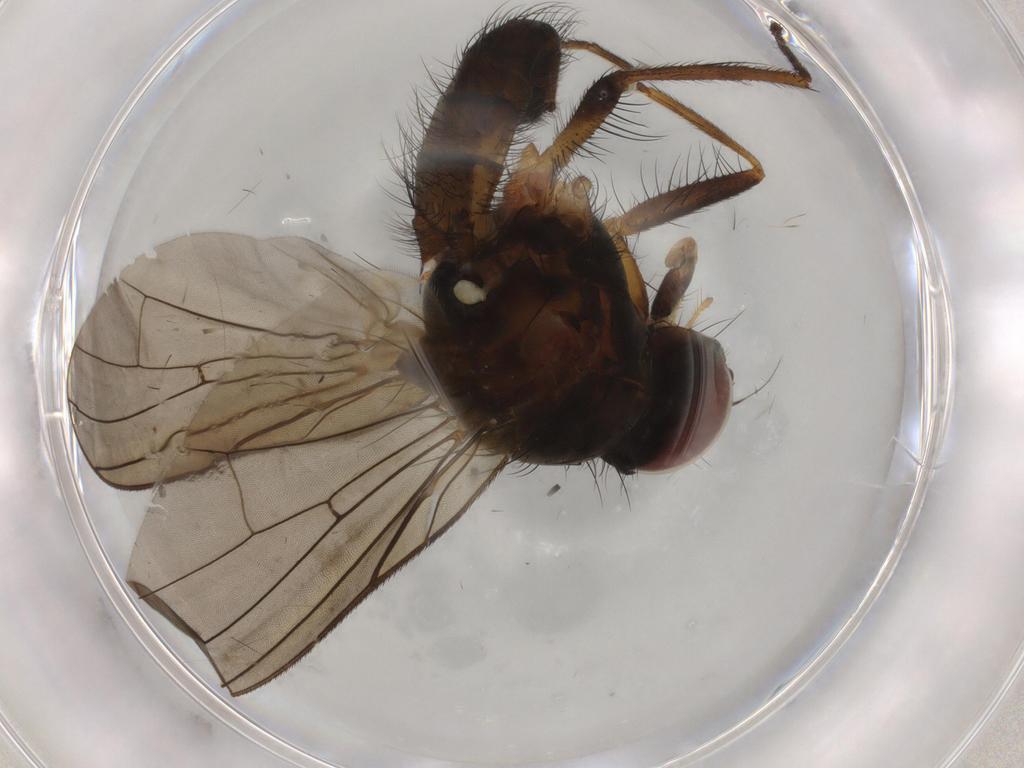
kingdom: Animalia
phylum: Arthropoda
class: Insecta
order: Diptera
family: Anthomyiidae
